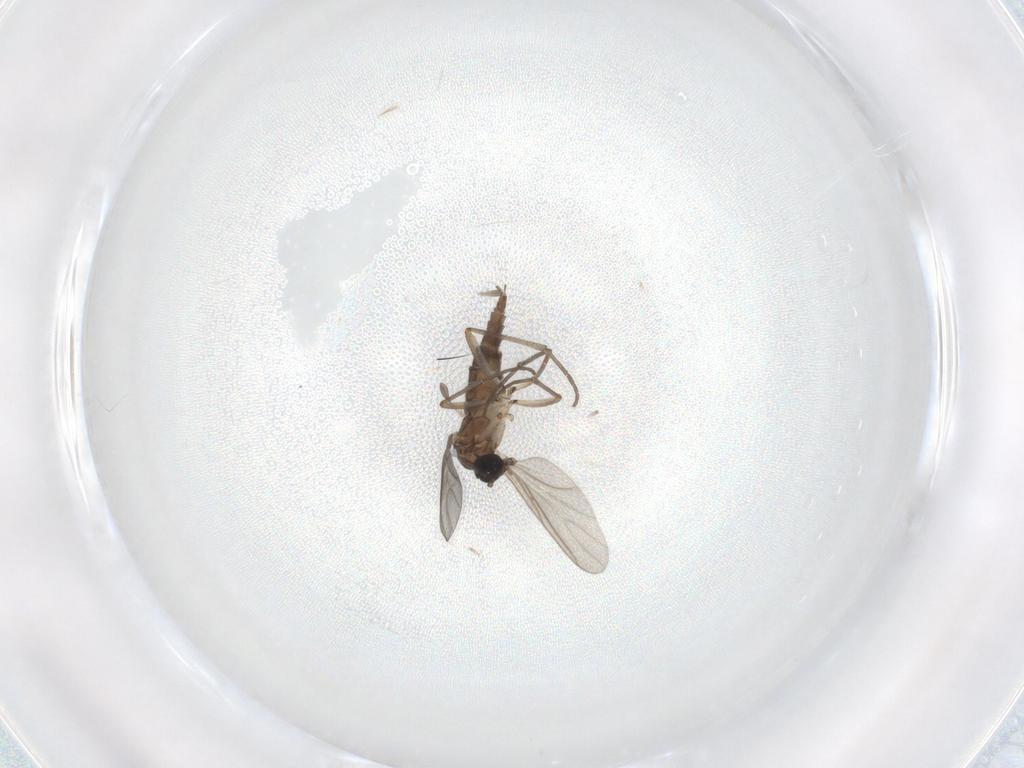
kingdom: Animalia
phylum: Arthropoda
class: Insecta
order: Diptera
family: Sciaridae
